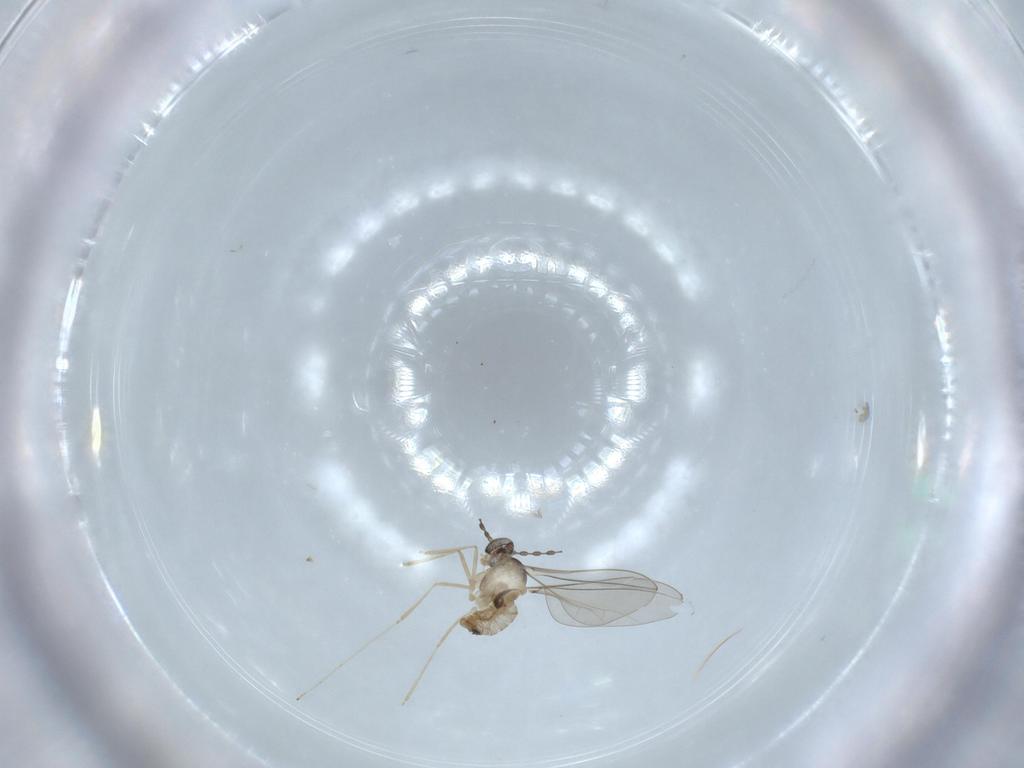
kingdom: Animalia
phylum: Arthropoda
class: Insecta
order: Diptera
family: Cecidomyiidae
